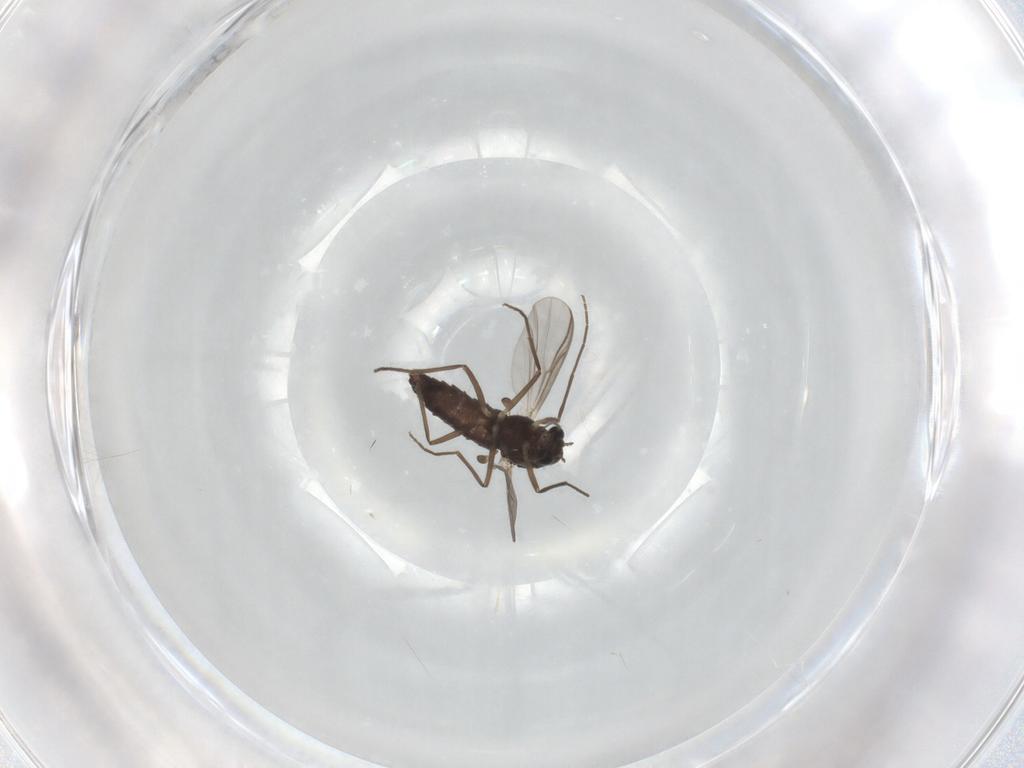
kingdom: Animalia
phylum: Arthropoda
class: Insecta
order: Diptera
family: Chironomidae
